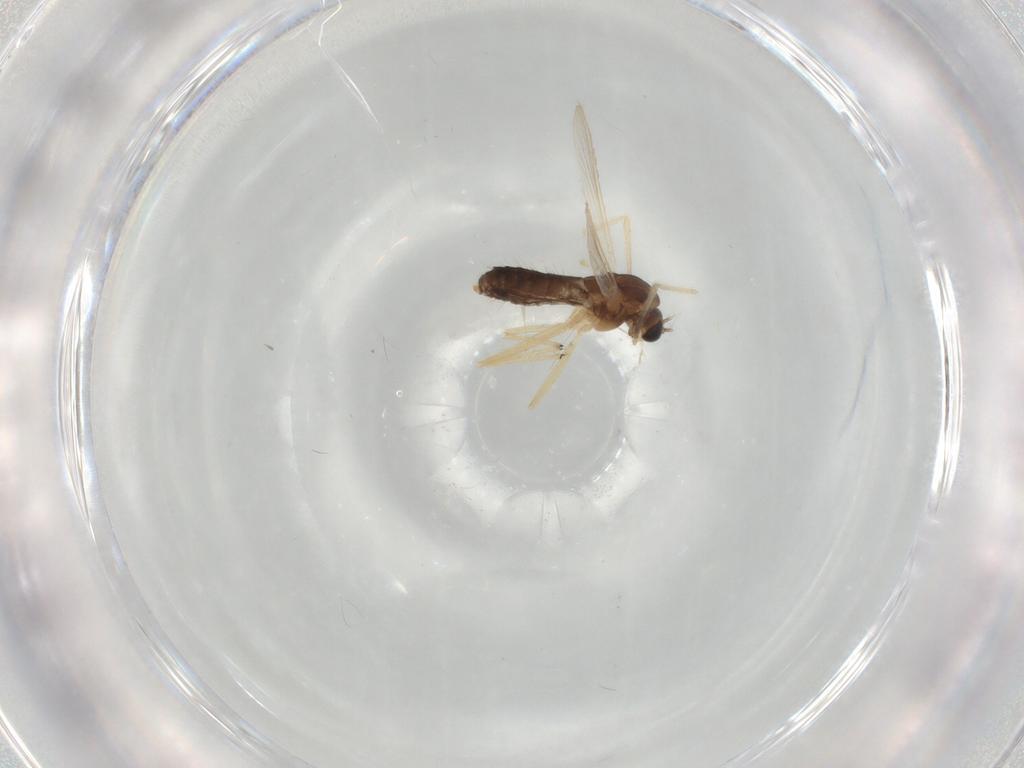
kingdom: Animalia
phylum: Arthropoda
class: Insecta
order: Diptera
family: Chironomidae
